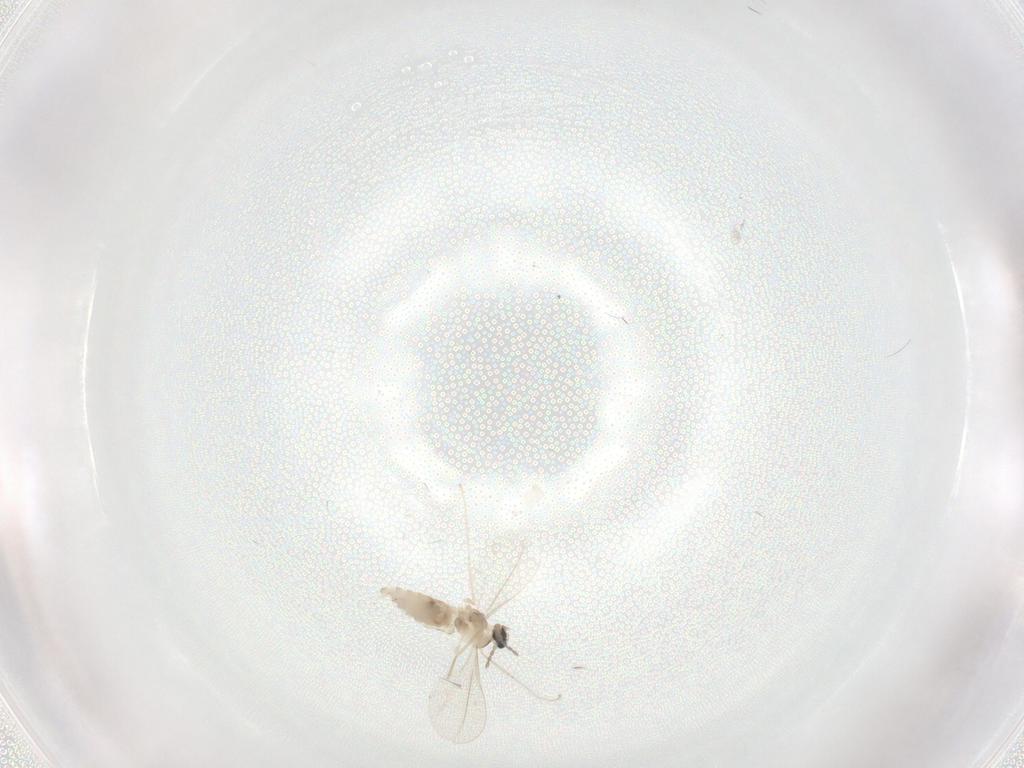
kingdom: Animalia
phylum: Arthropoda
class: Insecta
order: Diptera
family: Cecidomyiidae
